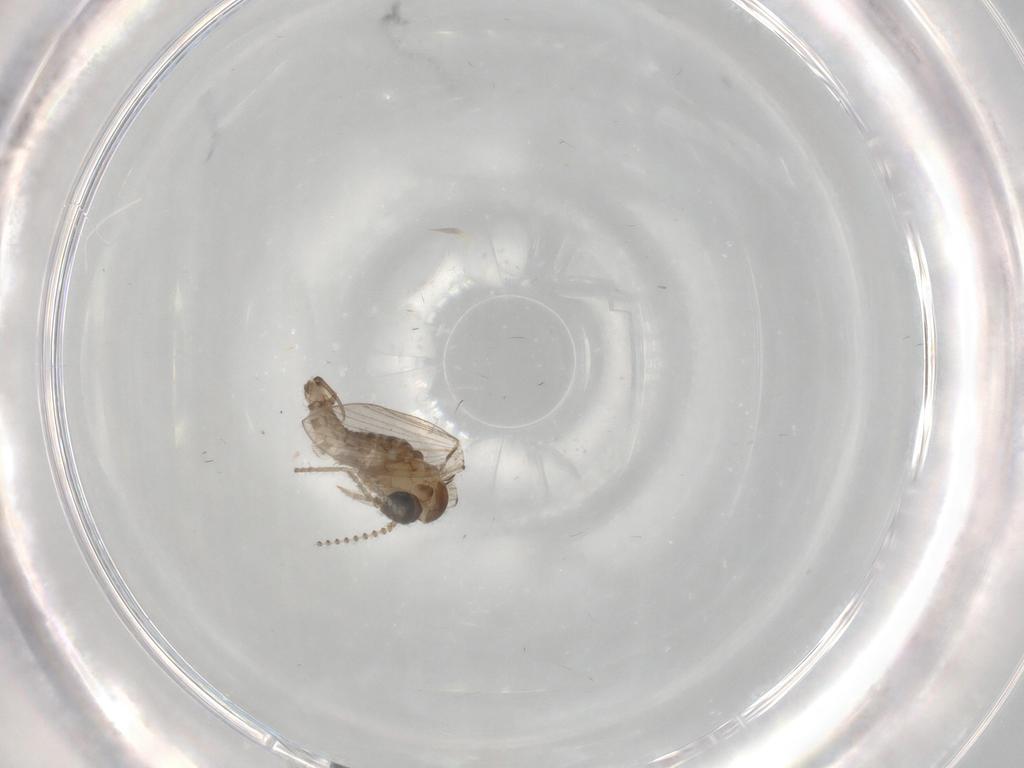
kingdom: Animalia
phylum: Arthropoda
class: Insecta
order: Diptera
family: Psychodidae
